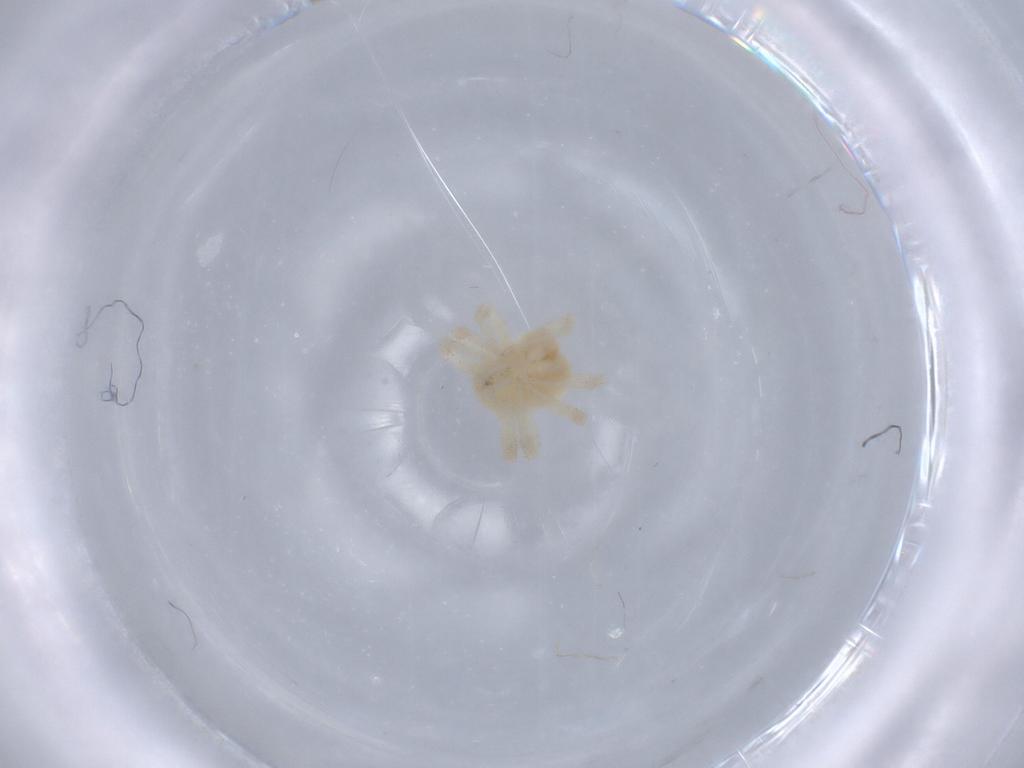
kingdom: Animalia
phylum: Arthropoda
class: Arachnida
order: Trombidiformes
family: Anystidae
